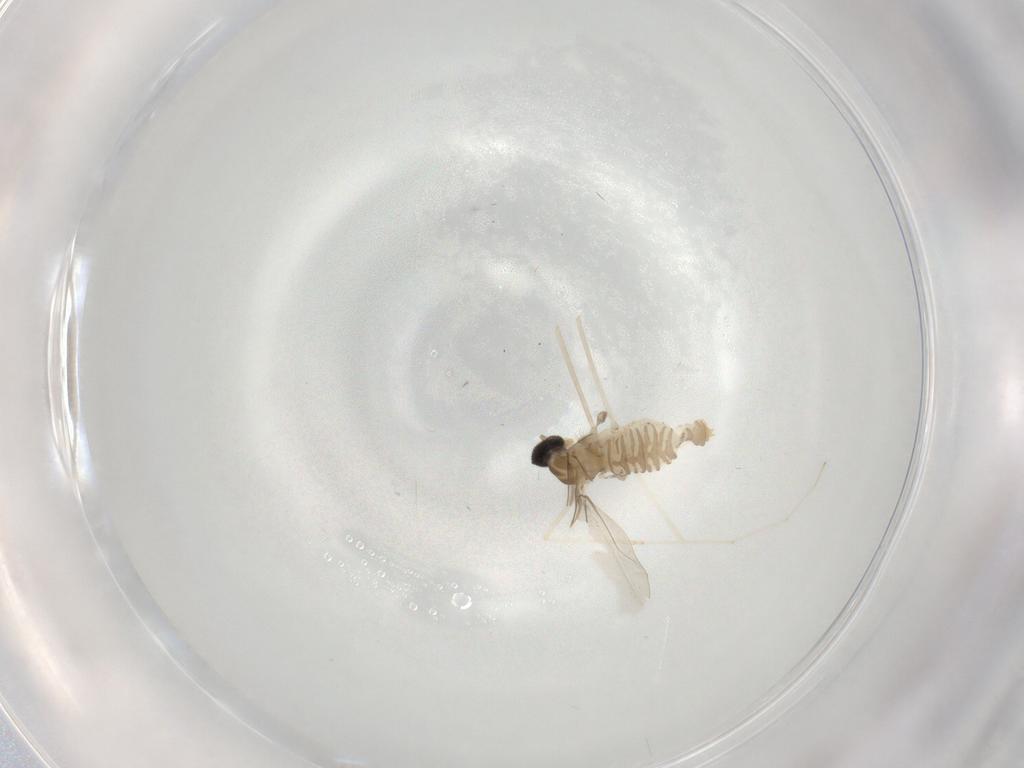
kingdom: Animalia
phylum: Arthropoda
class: Insecta
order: Diptera
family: Cecidomyiidae
